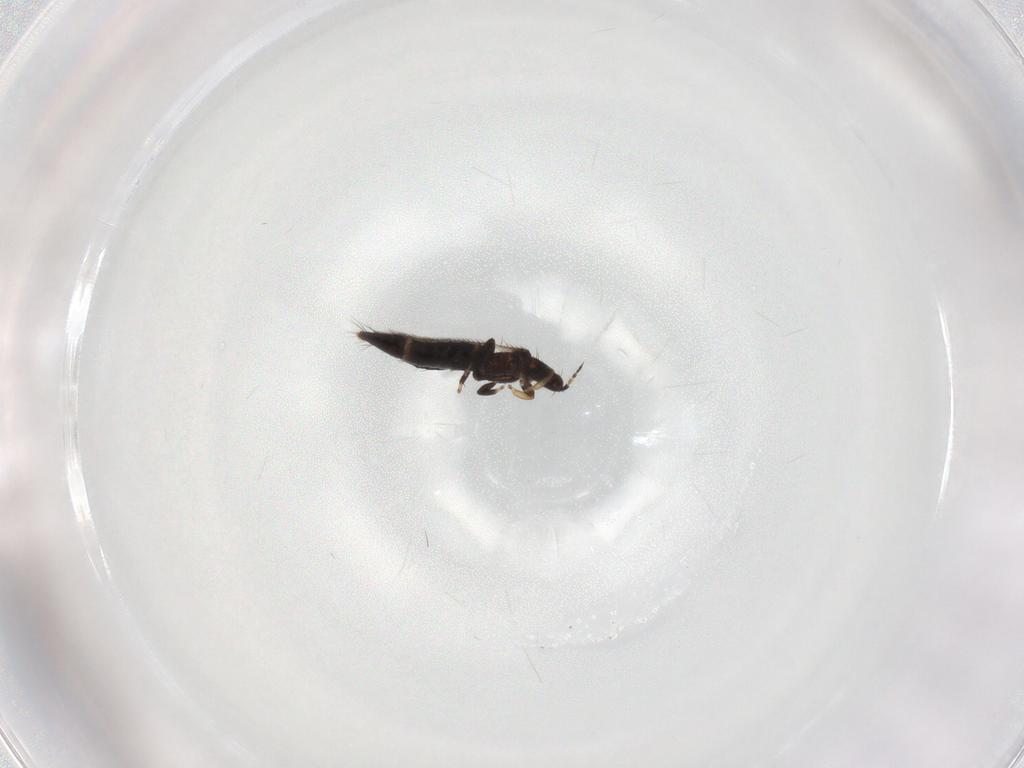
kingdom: Animalia
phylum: Arthropoda
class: Insecta
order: Thysanoptera
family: Thripidae
